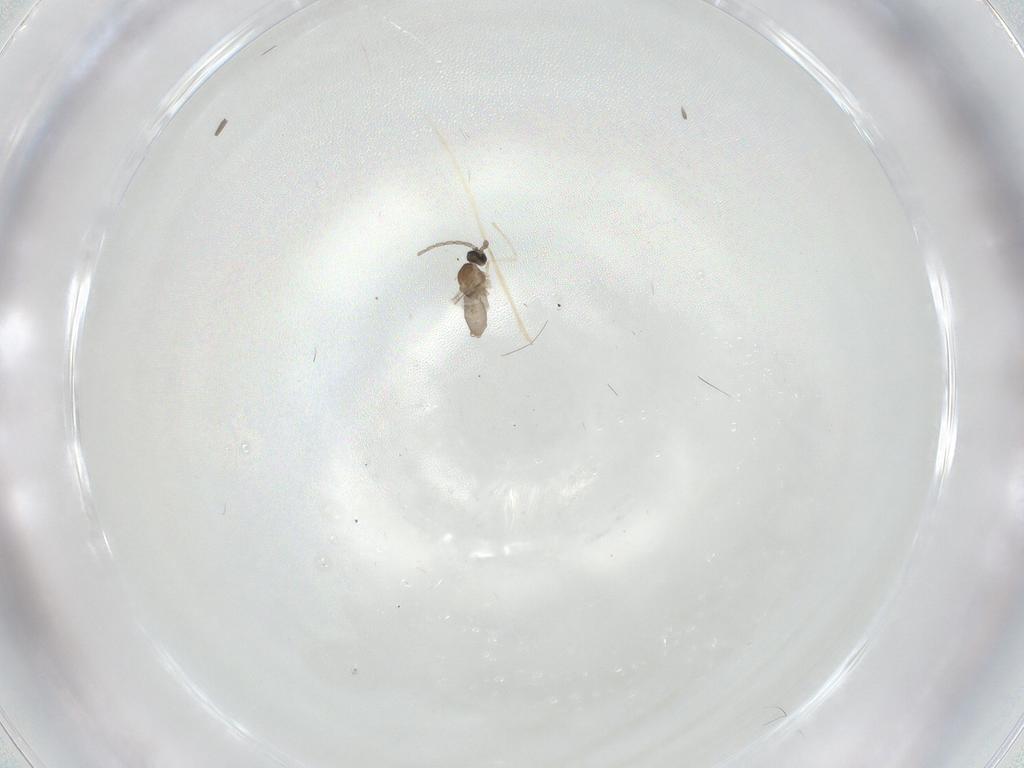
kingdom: Animalia
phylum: Arthropoda
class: Insecta
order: Diptera
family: Cecidomyiidae
